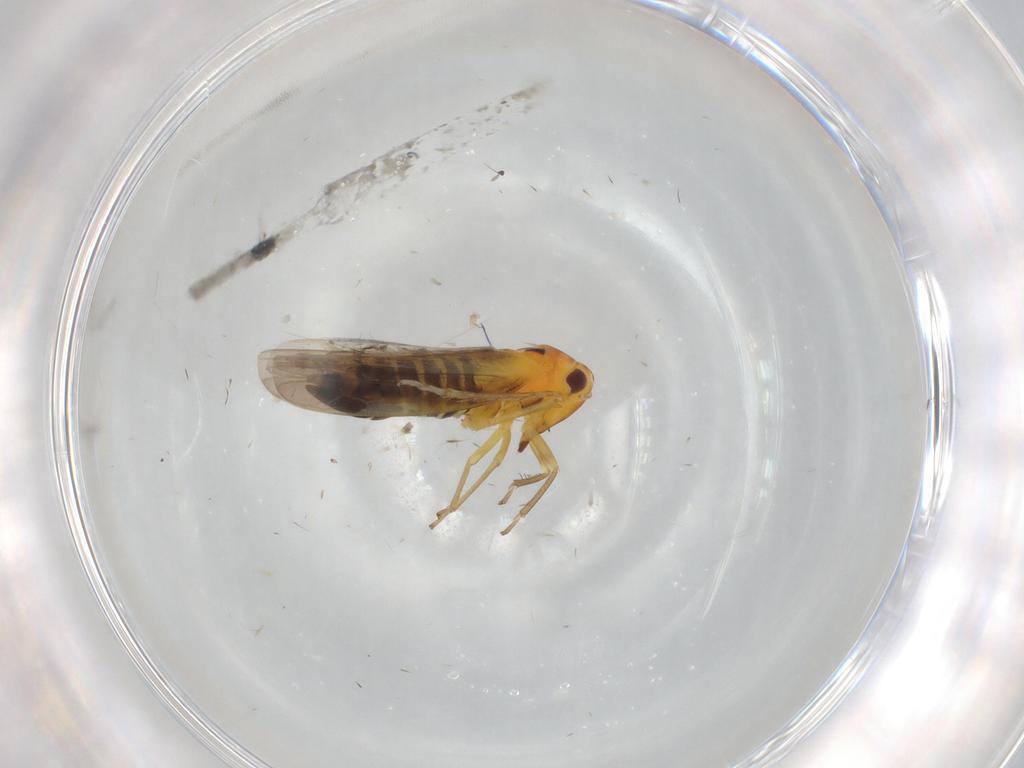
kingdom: Animalia
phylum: Arthropoda
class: Insecta
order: Hemiptera
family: Cicadellidae
